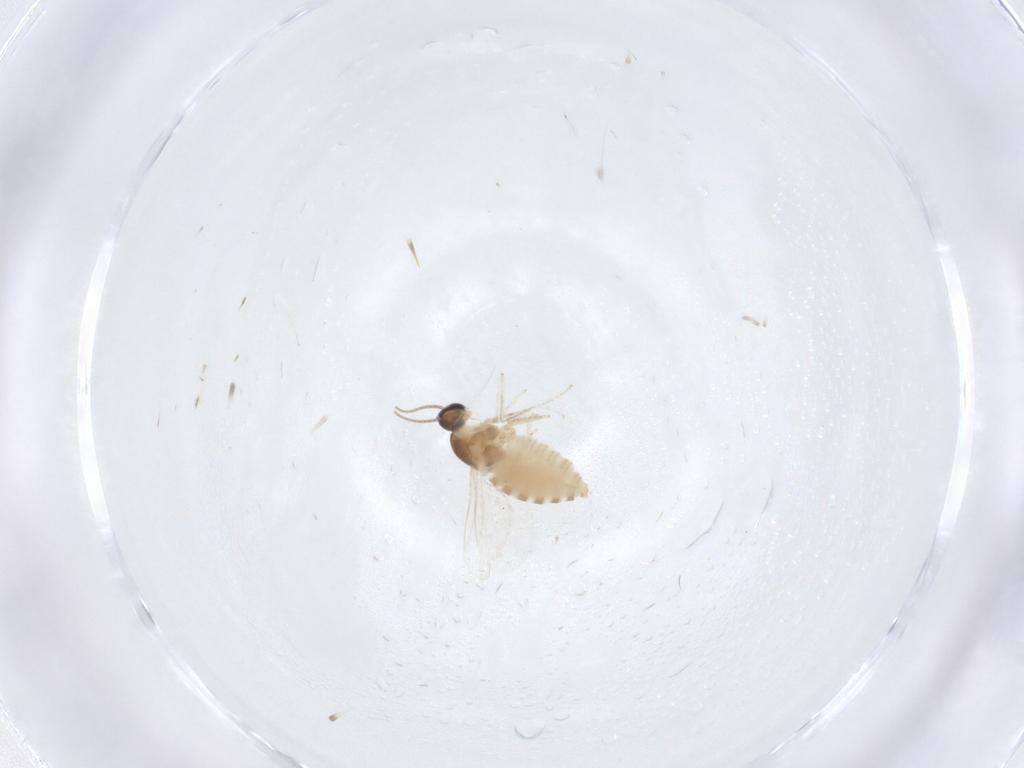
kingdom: Animalia
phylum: Arthropoda
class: Insecta
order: Diptera
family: Cecidomyiidae
